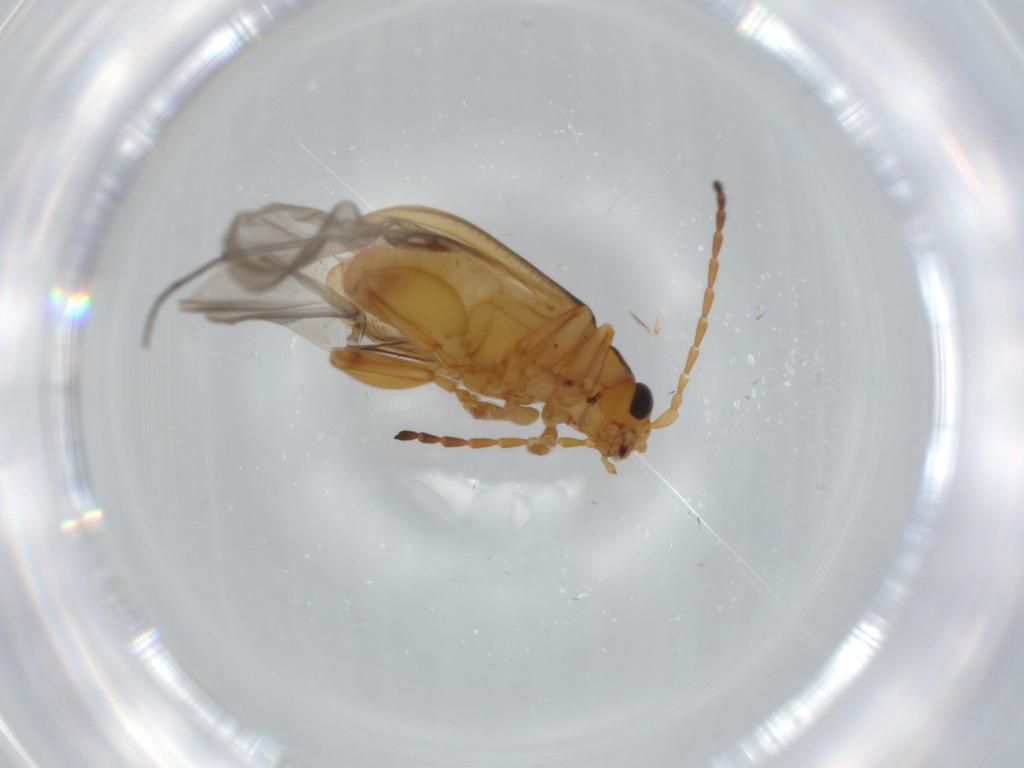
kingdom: Animalia
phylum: Arthropoda
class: Insecta
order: Coleoptera
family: Chrysomelidae
